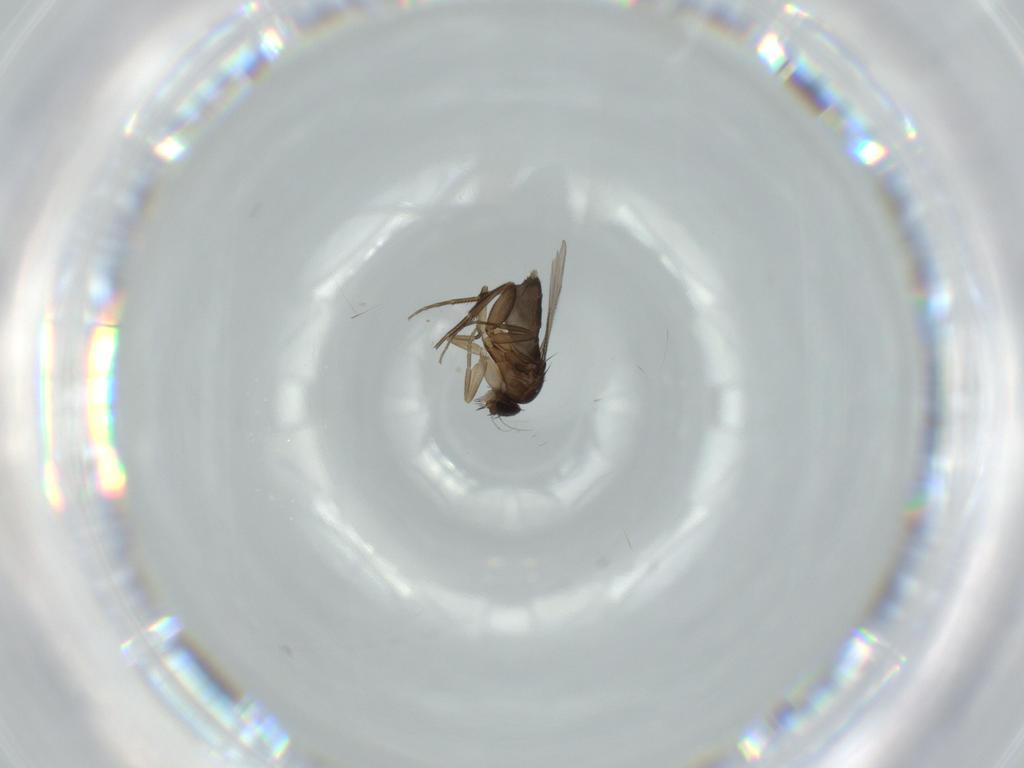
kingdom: Animalia
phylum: Arthropoda
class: Insecta
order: Diptera
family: Phoridae
